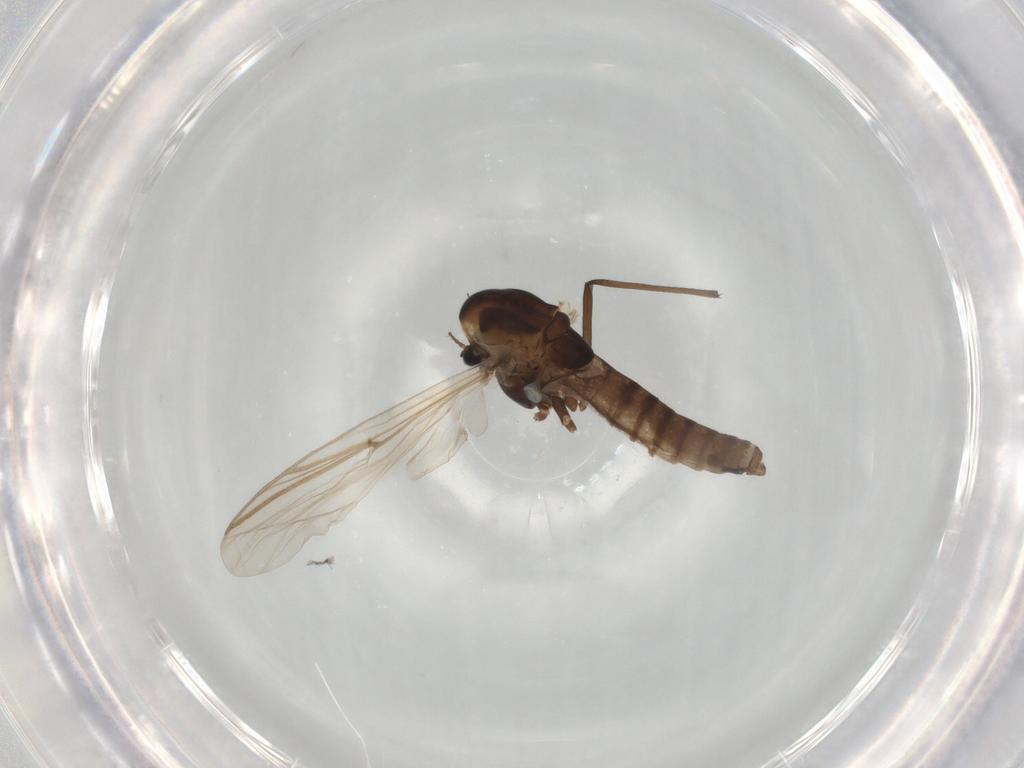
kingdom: Animalia
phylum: Arthropoda
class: Insecta
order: Diptera
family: Chironomidae
